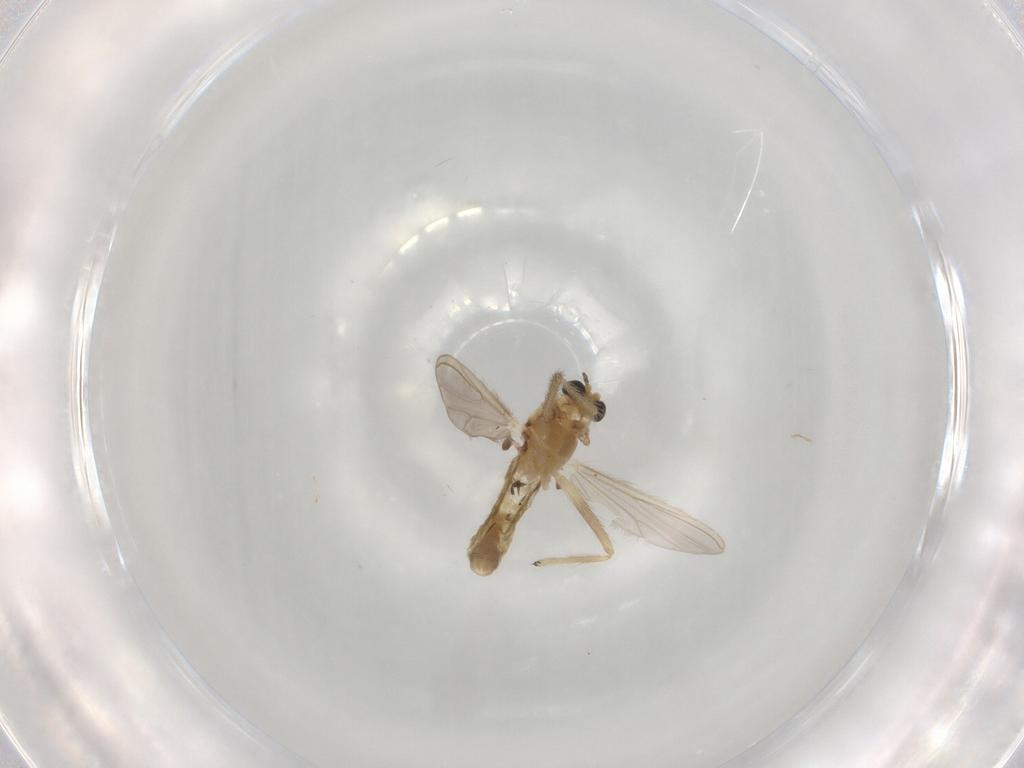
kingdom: Animalia
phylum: Arthropoda
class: Insecta
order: Diptera
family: Chironomidae
